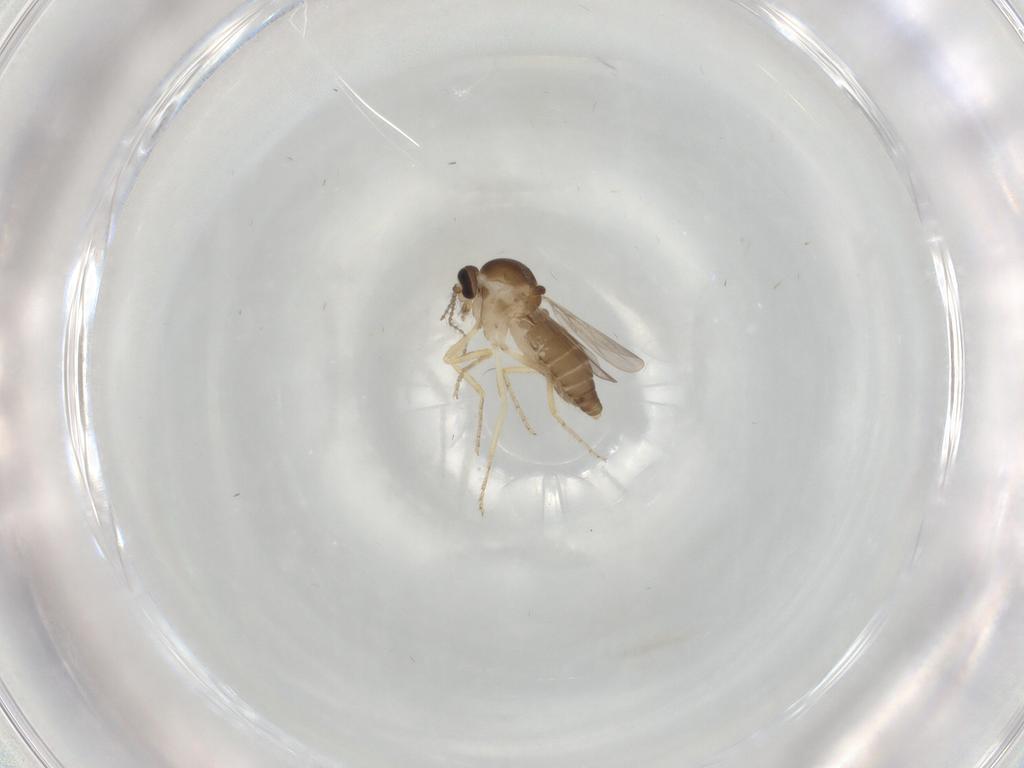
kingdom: Animalia
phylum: Arthropoda
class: Insecta
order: Diptera
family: Ceratopogonidae
